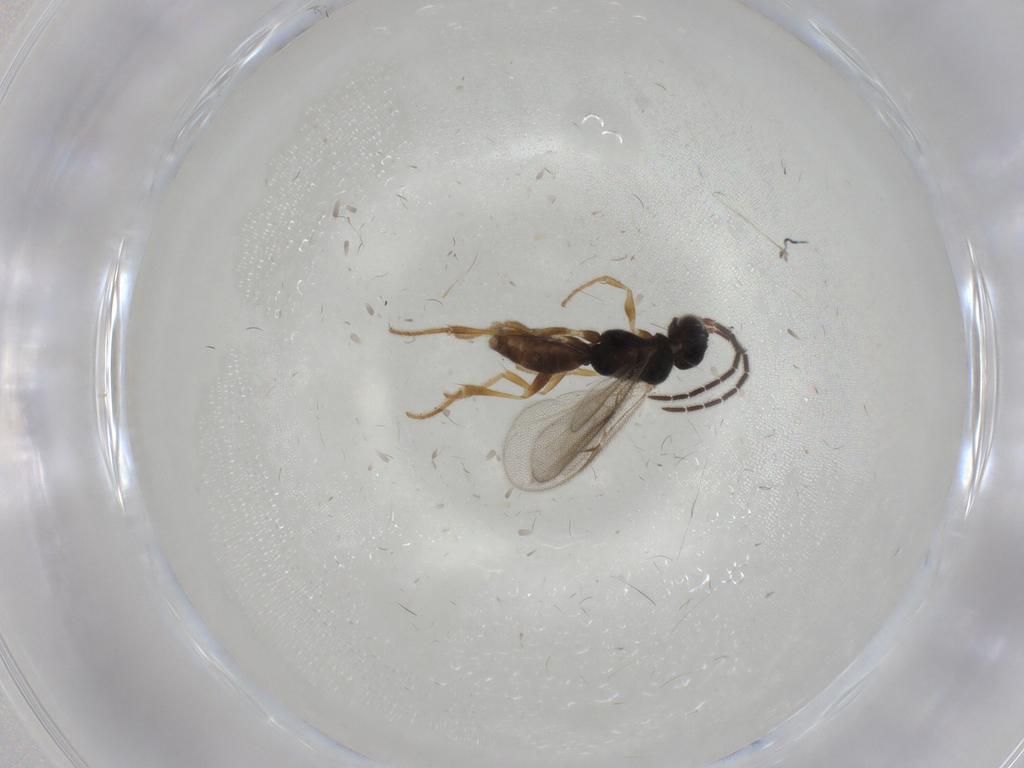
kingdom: Animalia
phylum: Arthropoda
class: Insecta
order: Hymenoptera
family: Dryinidae
